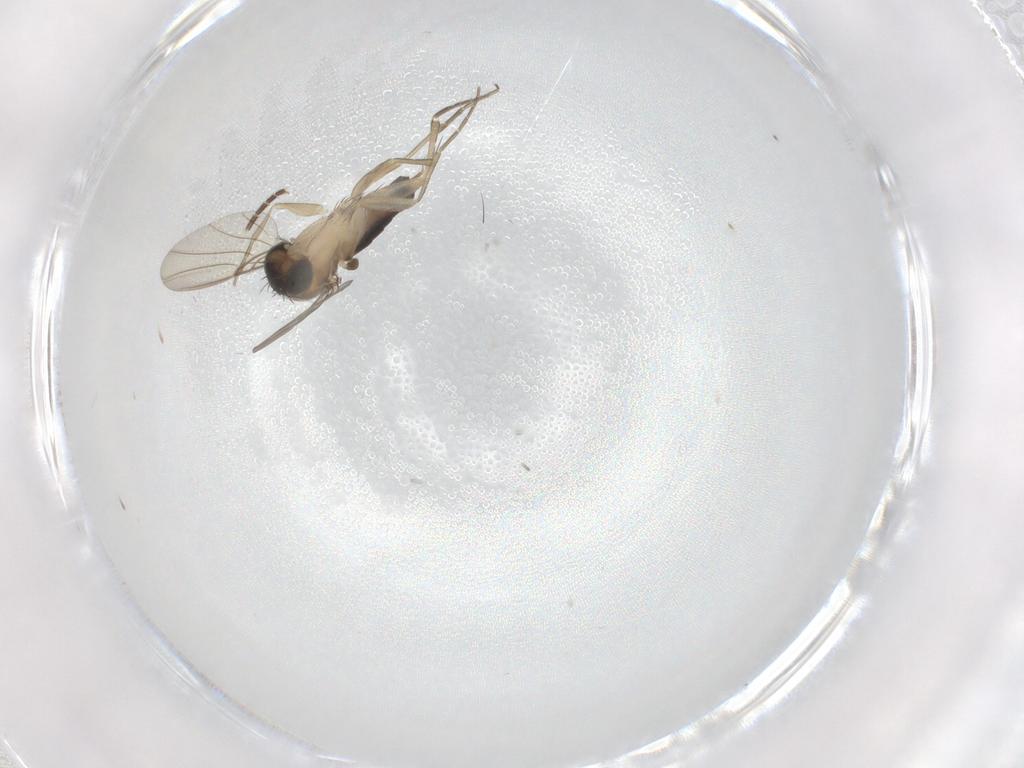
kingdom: Animalia
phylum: Arthropoda
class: Insecta
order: Diptera
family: Phoridae
